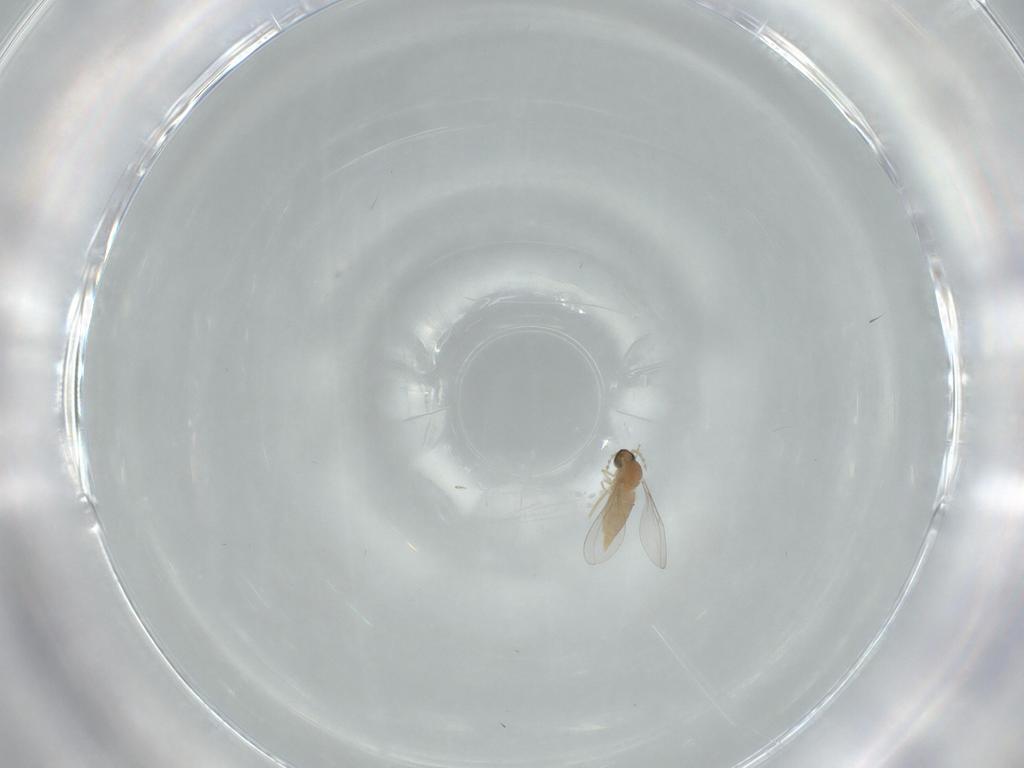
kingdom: Animalia
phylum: Arthropoda
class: Insecta
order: Diptera
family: Cecidomyiidae
